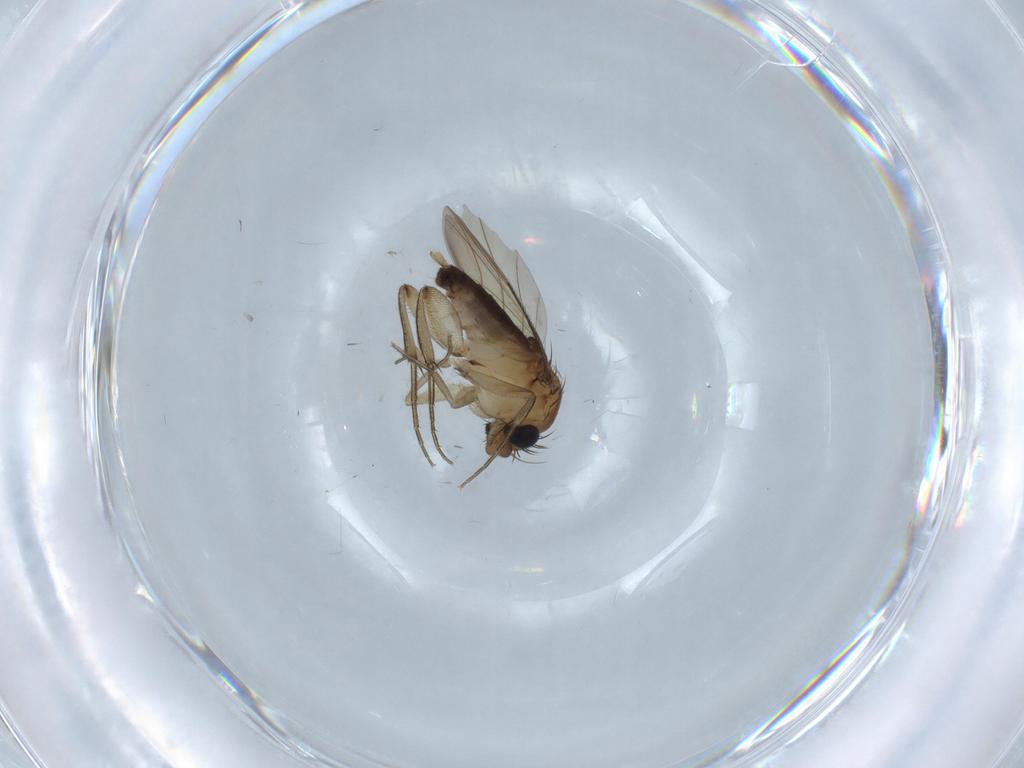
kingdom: Animalia
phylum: Arthropoda
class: Insecta
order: Diptera
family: Phoridae
